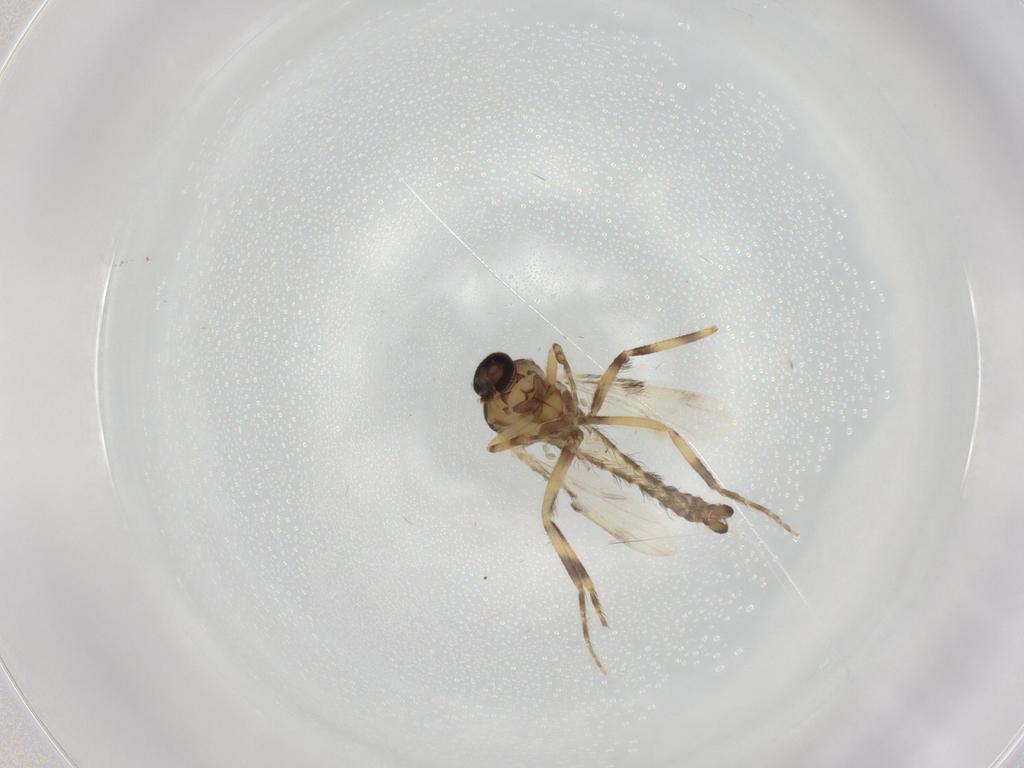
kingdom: Animalia
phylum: Arthropoda
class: Insecta
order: Diptera
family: Ceratopogonidae
